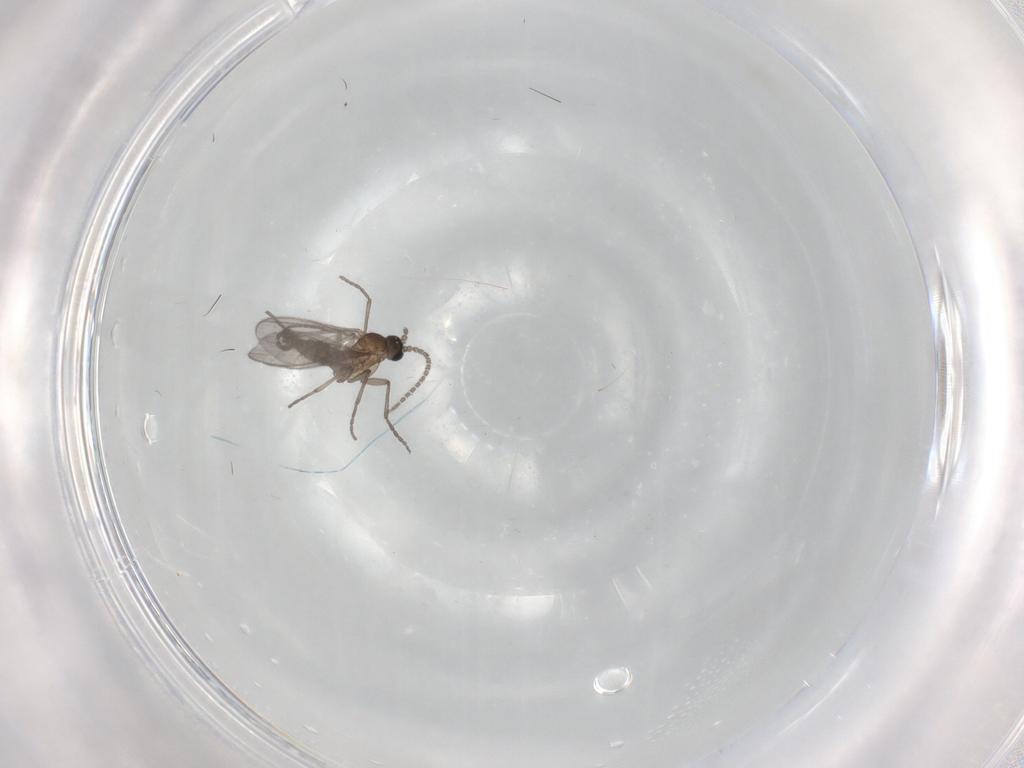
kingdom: Animalia
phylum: Arthropoda
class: Insecta
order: Diptera
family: Sciaridae
